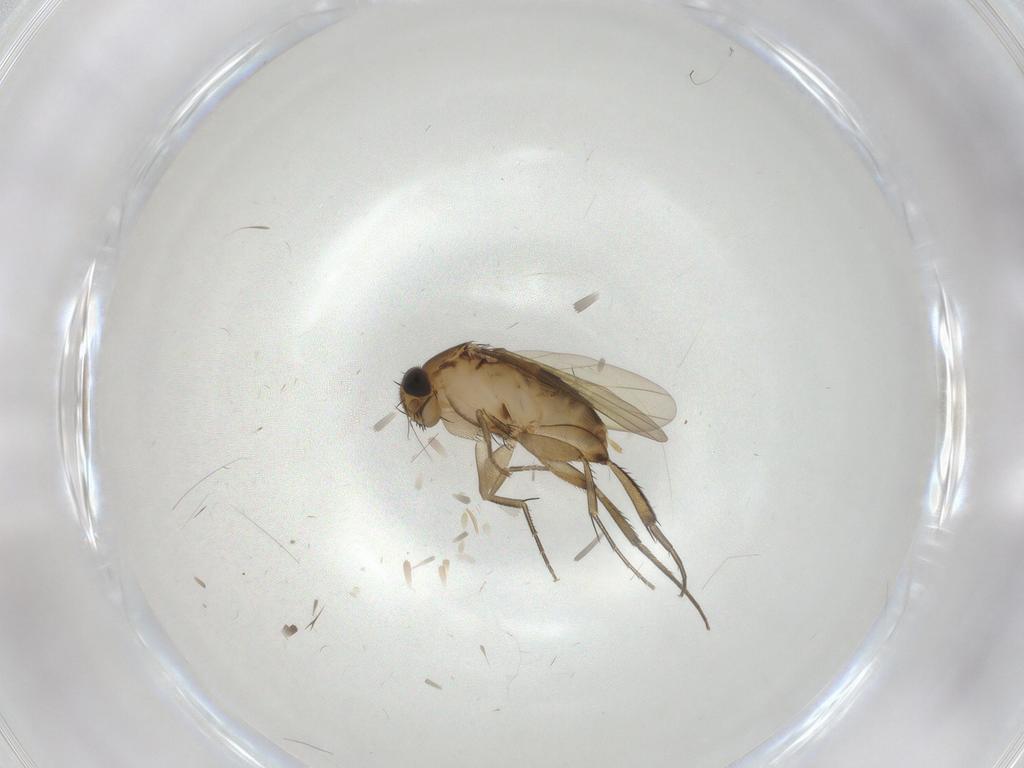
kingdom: Animalia
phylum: Arthropoda
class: Insecta
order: Diptera
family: Phoridae
